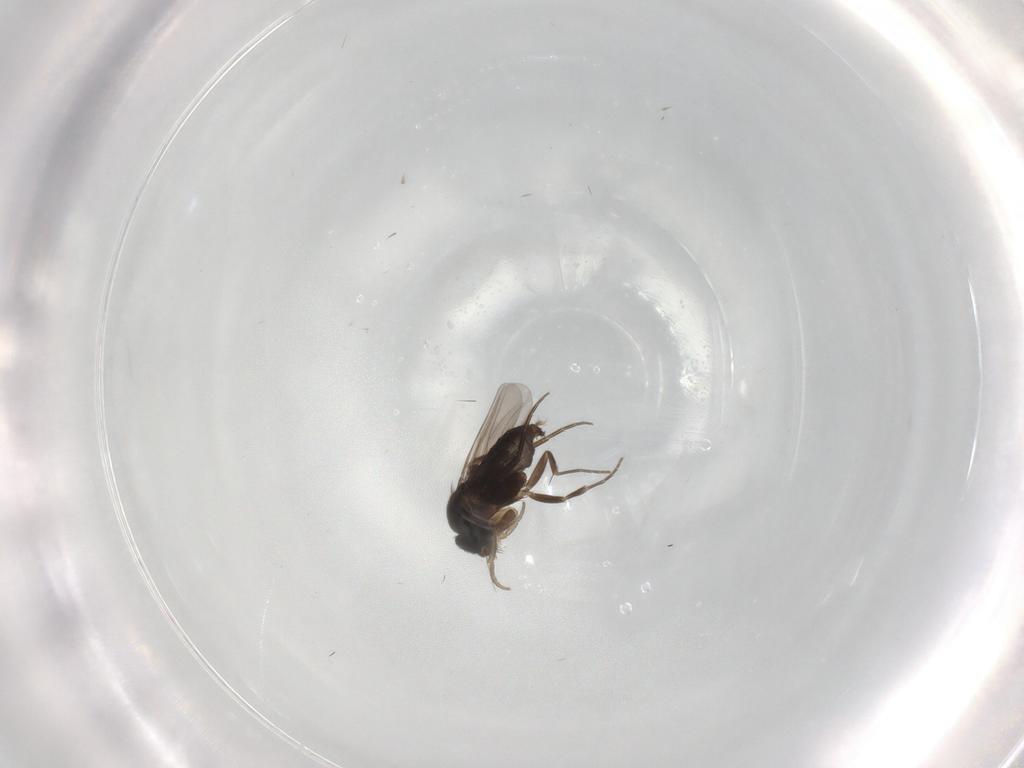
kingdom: Animalia
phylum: Arthropoda
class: Insecta
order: Diptera
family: Phoridae
